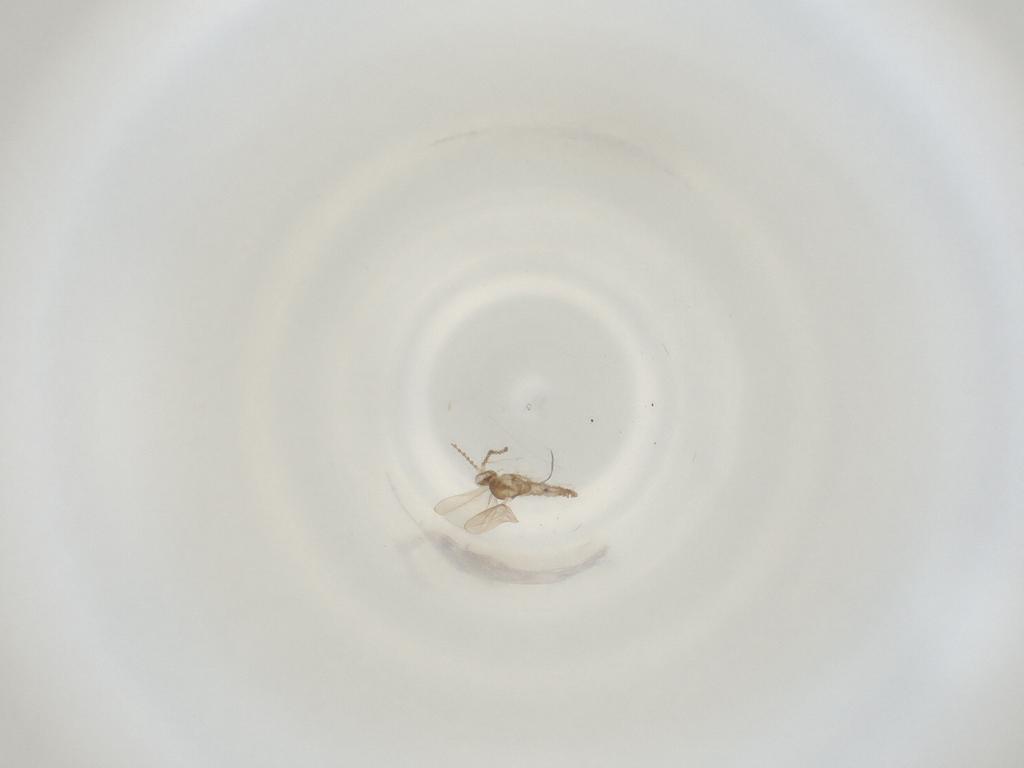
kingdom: Animalia
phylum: Arthropoda
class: Insecta
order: Diptera
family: Cecidomyiidae
